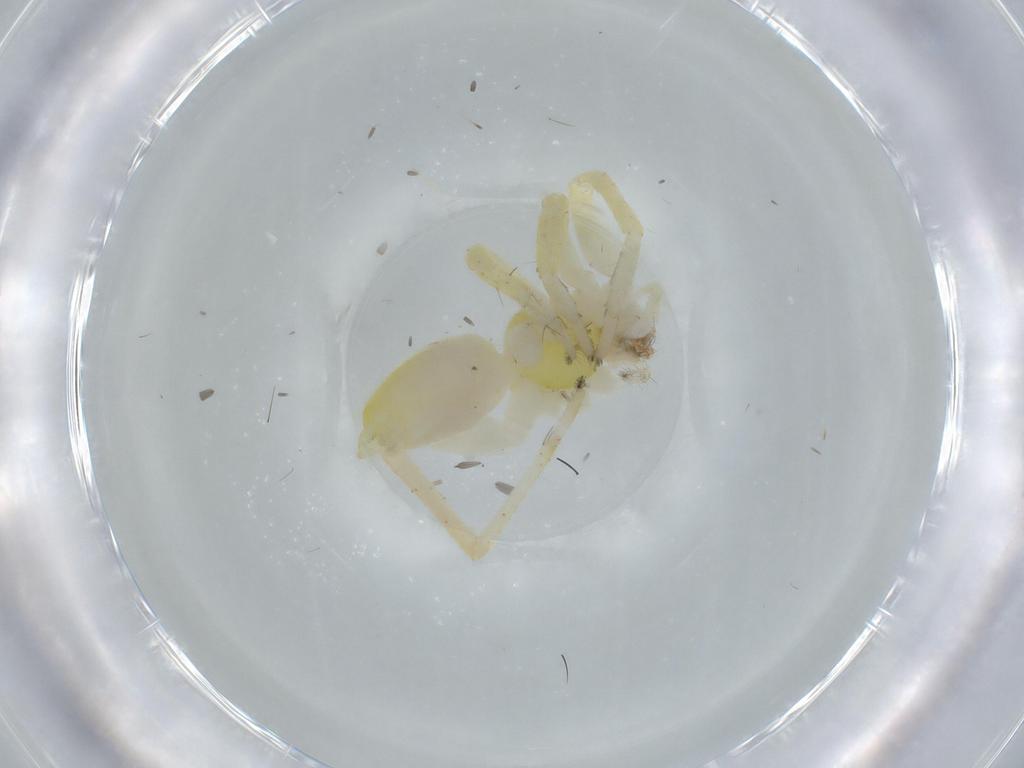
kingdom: Animalia
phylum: Arthropoda
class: Arachnida
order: Araneae
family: Anyphaenidae
